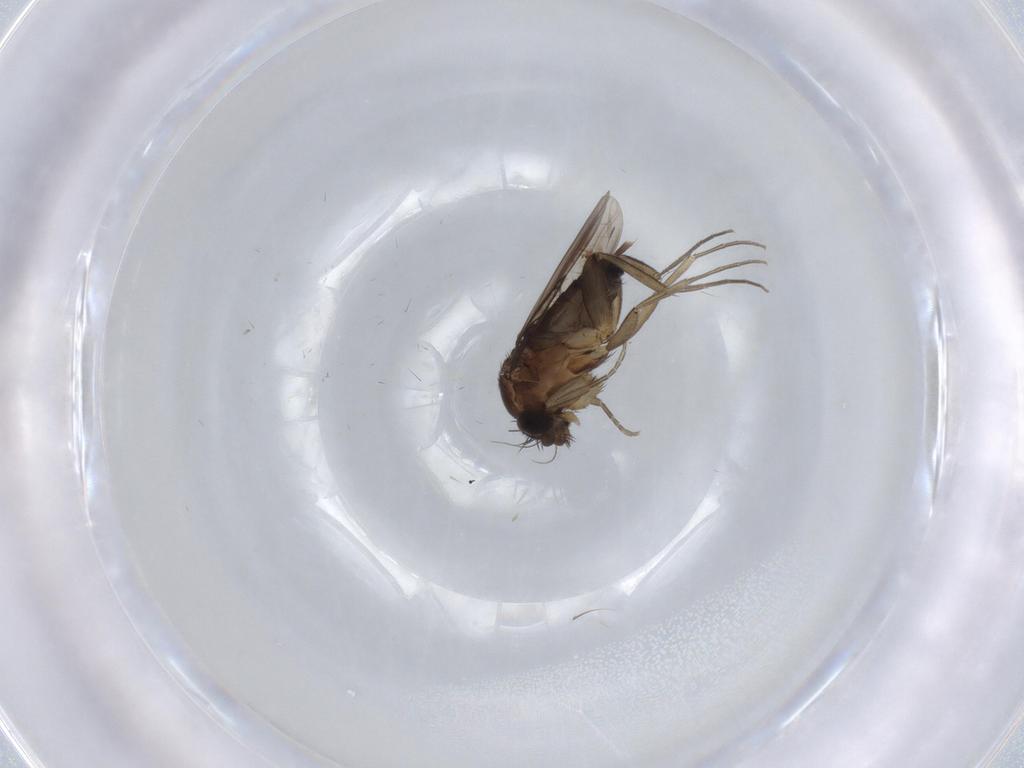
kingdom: Animalia
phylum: Arthropoda
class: Insecta
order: Diptera
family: Phoridae
